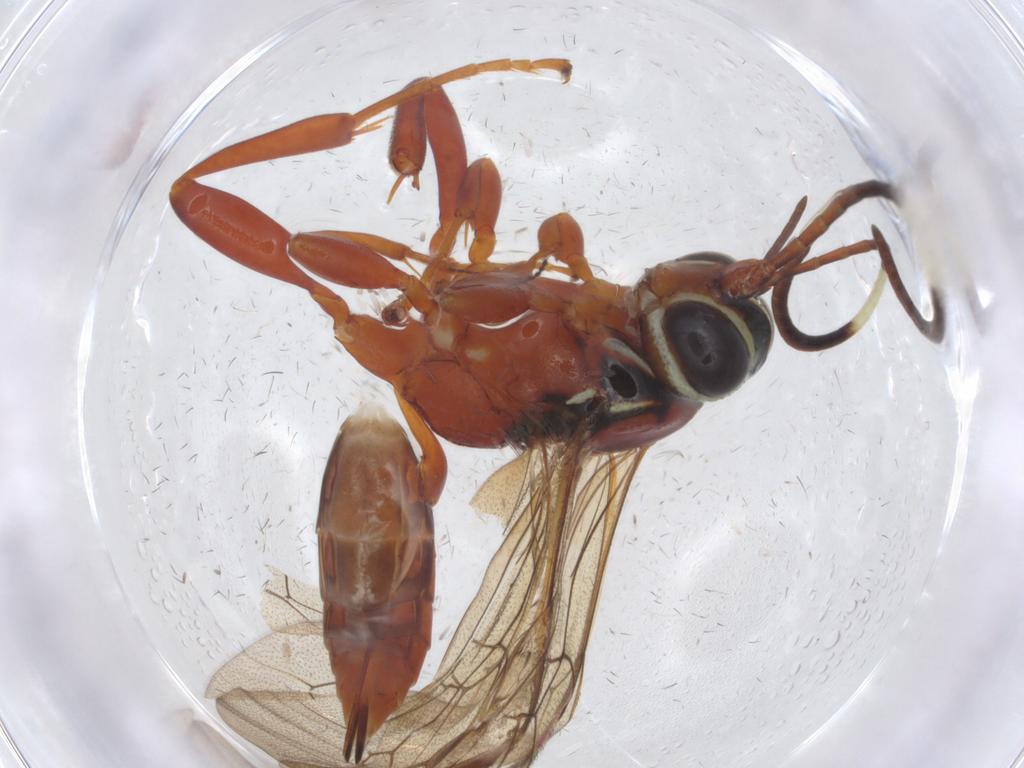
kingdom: Animalia
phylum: Arthropoda
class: Insecta
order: Hymenoptera
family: Ichneumonidae
